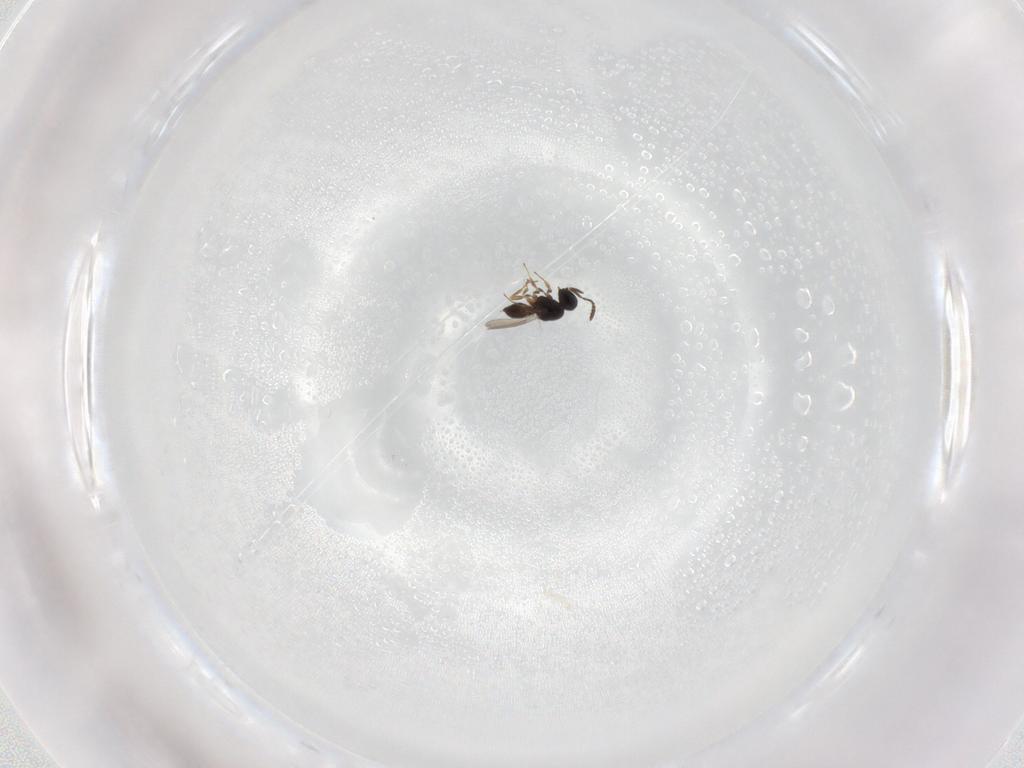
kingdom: Animalia
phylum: Arthropoda
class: Insecta
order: Hymenoptera
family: Scelionidae
